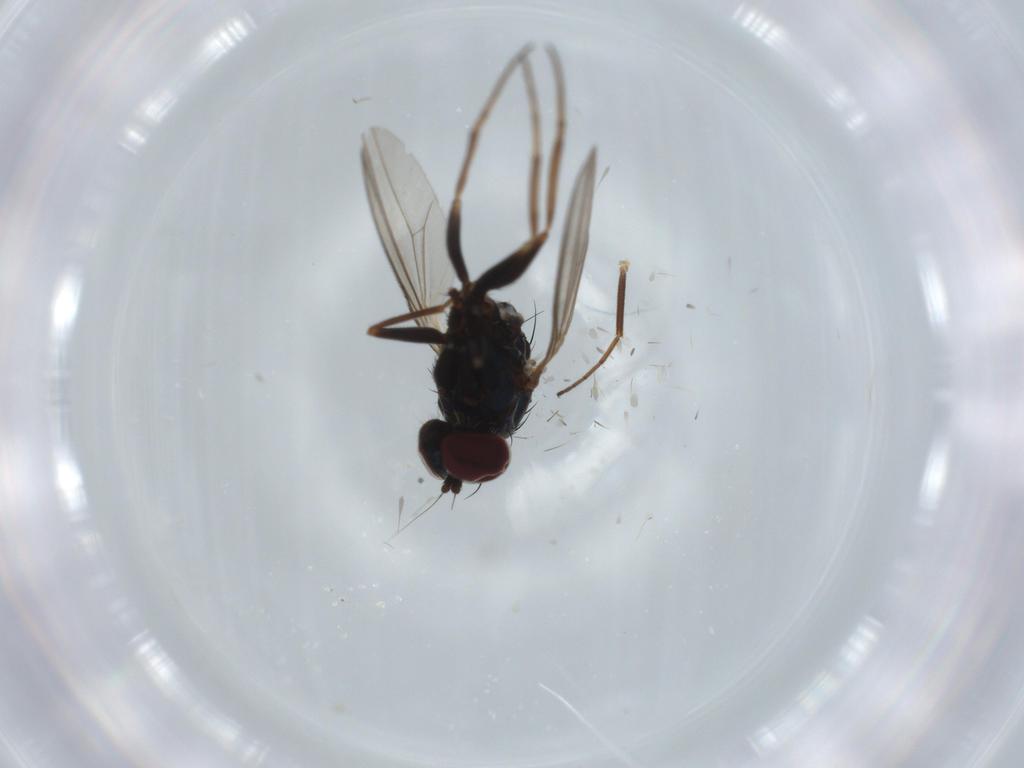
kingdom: Animalia
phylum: Arthropoda
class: Insecta
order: Diptera
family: Dolichopodidae
